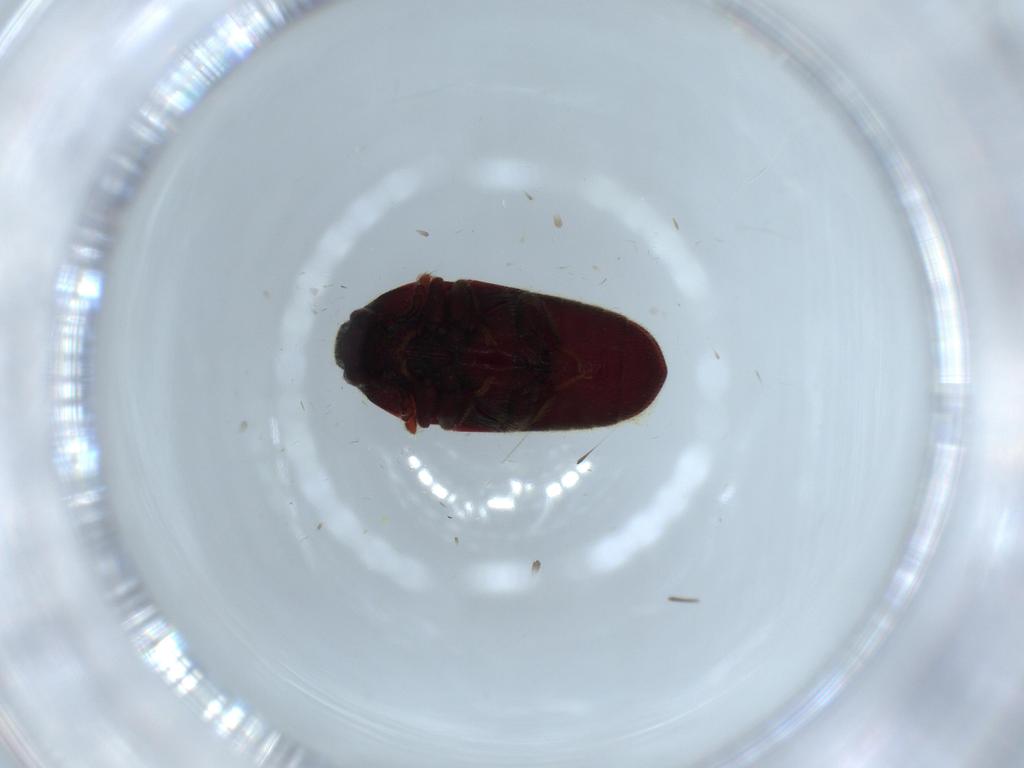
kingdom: Animalia
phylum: Arthropoda
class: Insecta
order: Coleoptera
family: Throscidae
